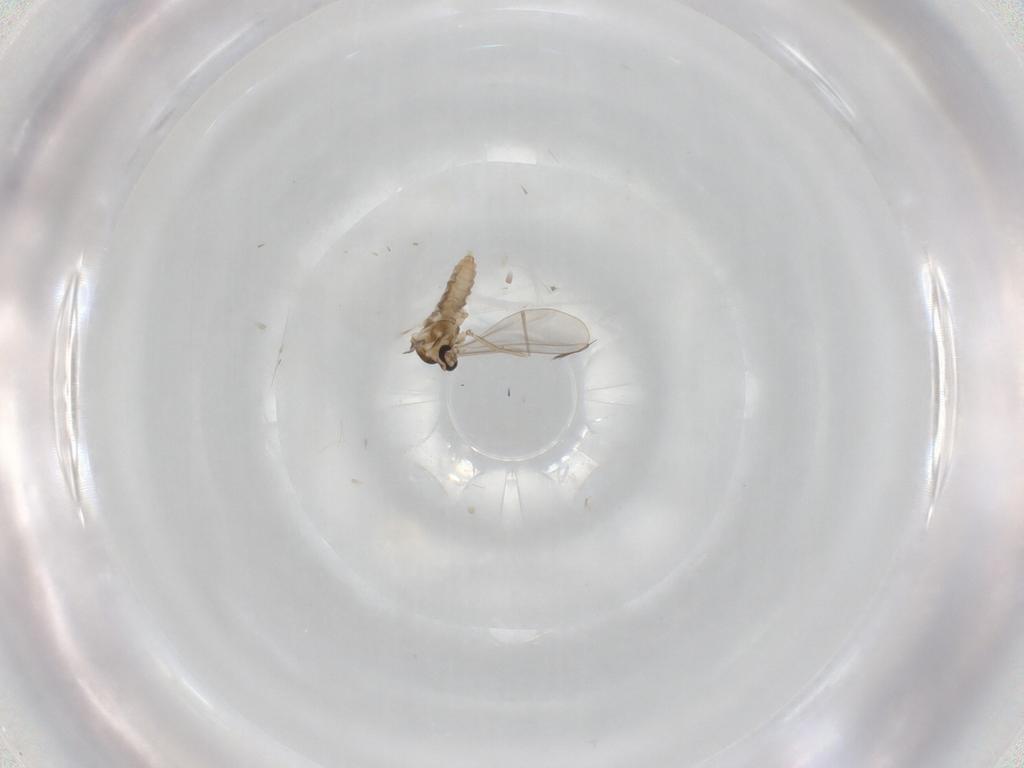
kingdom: Animalia
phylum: Arthropoda
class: Insecta
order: Diptera
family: Cecidomyiidae
